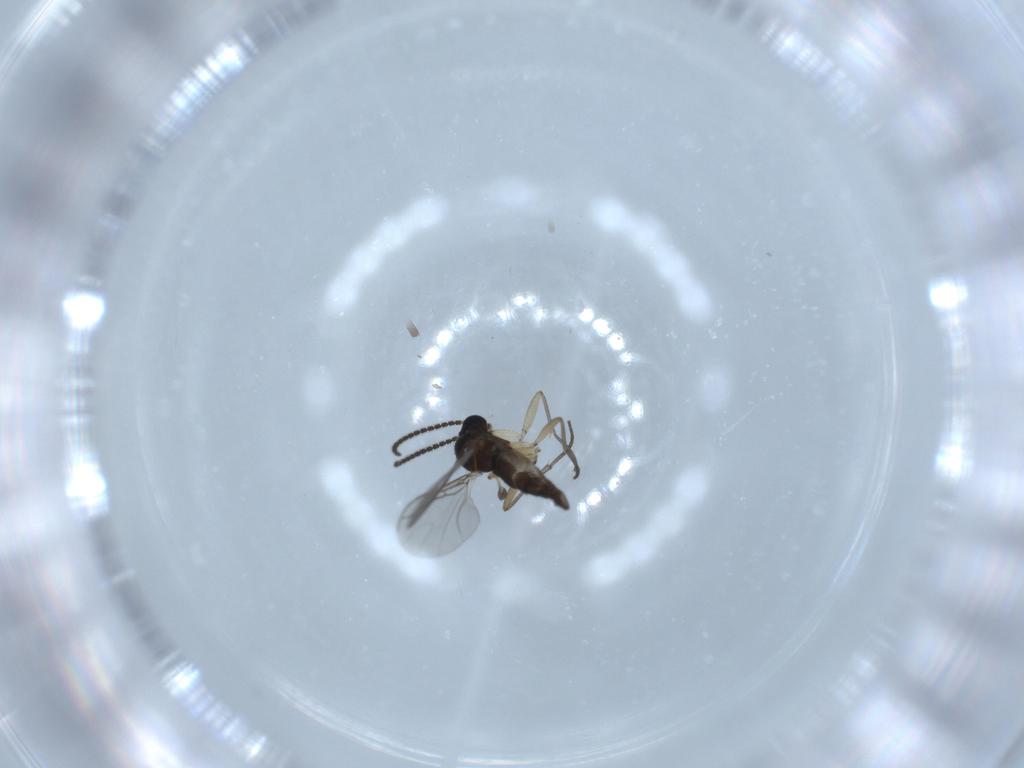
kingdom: Animalia
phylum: Arthropoda
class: Insecta
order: Diptera
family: Sciaridae
